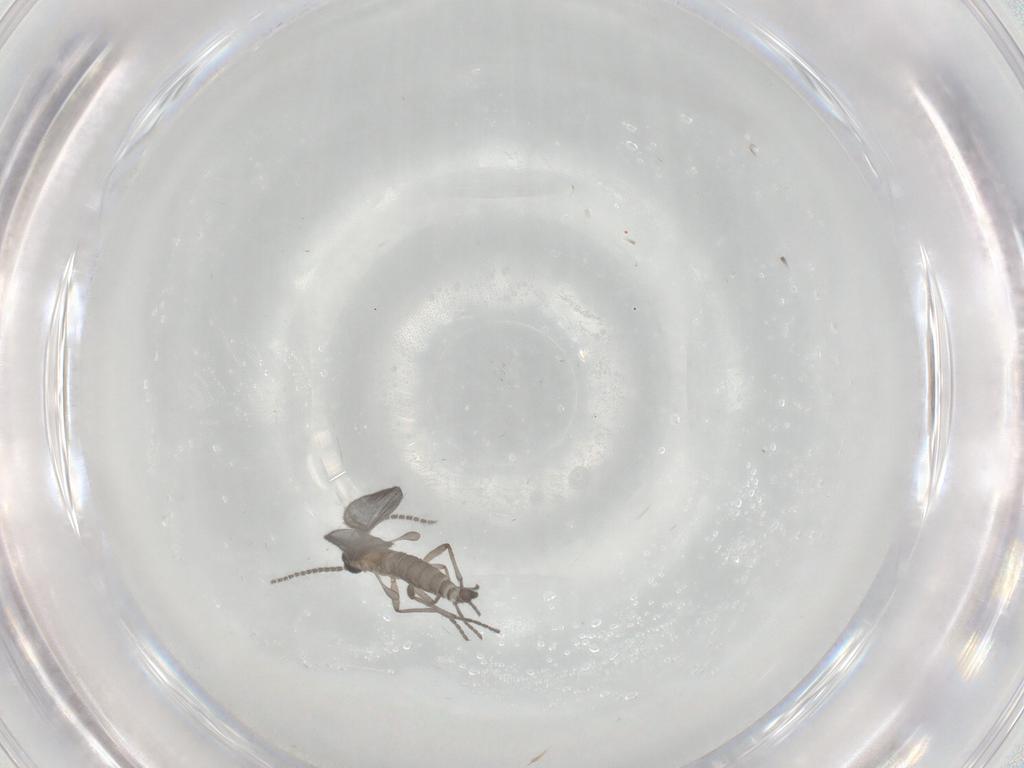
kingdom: Animalia
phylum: Arthropoda
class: Insecta
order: Diptera
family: Sciaridae
